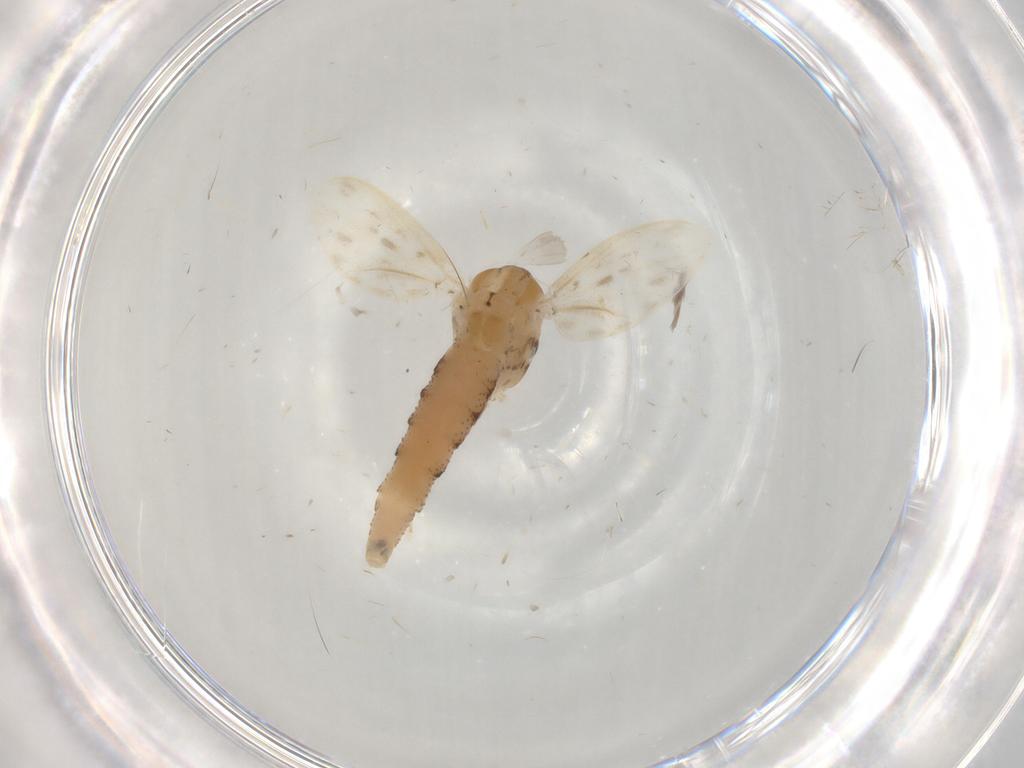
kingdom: Animalia
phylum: Arthropoda
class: Insecta
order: Diptera
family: Chaoboridae
